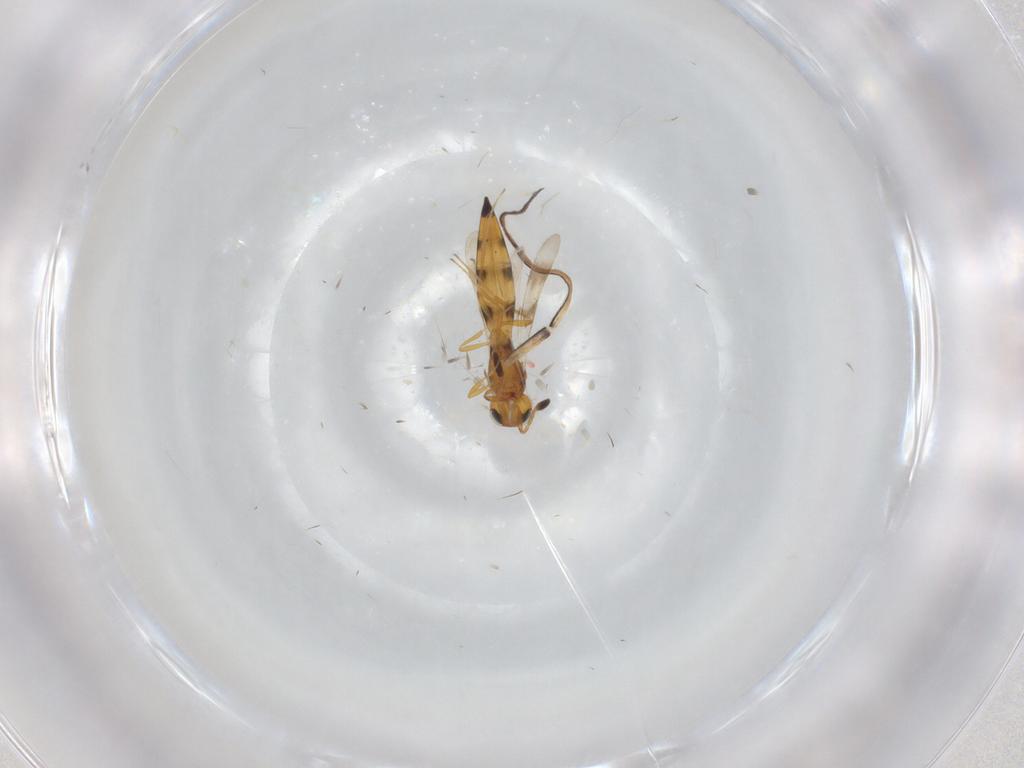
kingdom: Animalia
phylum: Arthropoda
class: Insecta
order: Hymenoptera
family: Scelionidae
